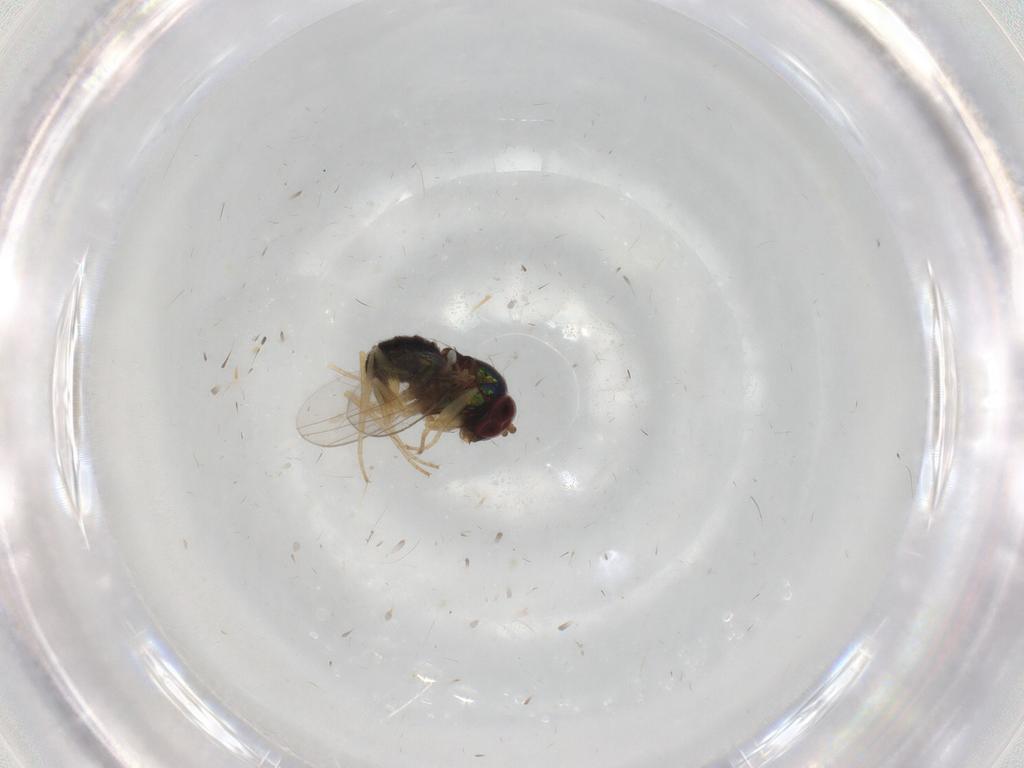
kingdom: Animalia
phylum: Arthropoda
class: Insecta
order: Diptera
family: Dolichopodidae
